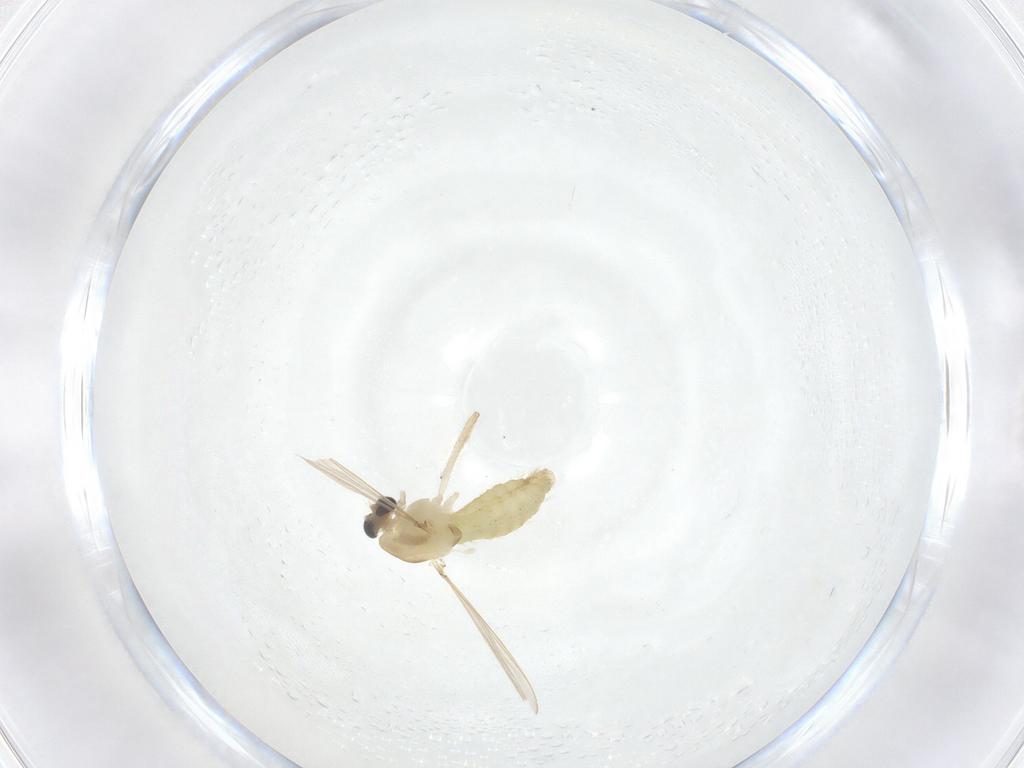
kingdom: Animalia
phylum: Arthropoda
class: Insecta
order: Diptera
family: Chironomidae
